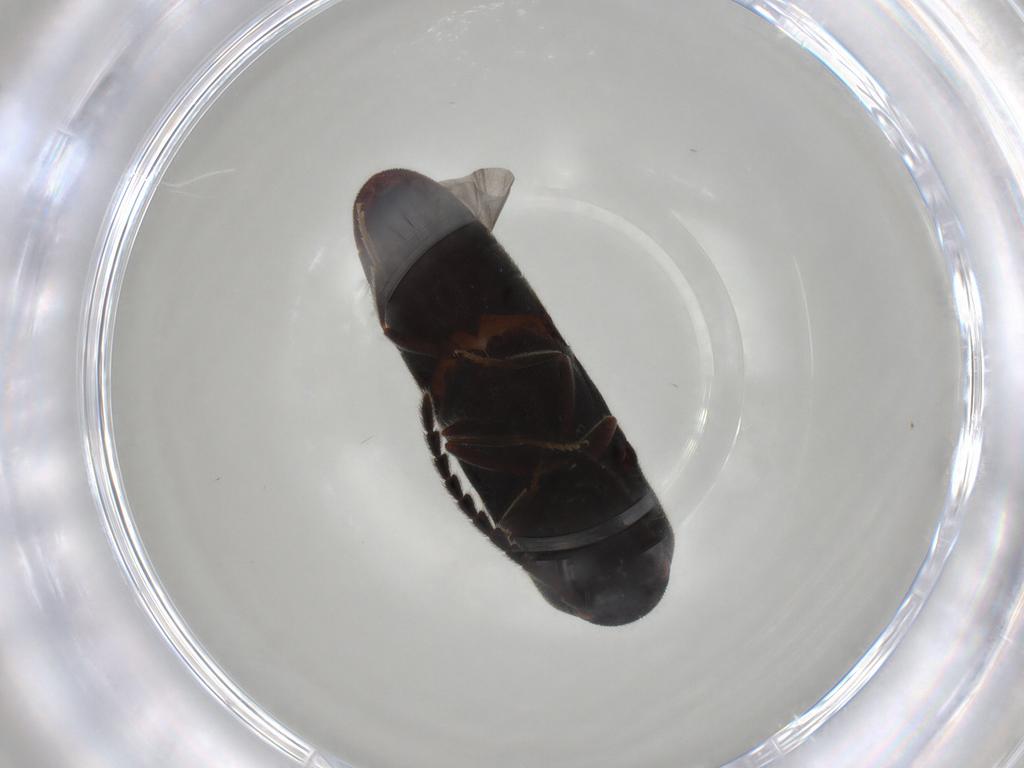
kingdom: Animalia
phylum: Arthropoda
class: Insecta
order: Coleoptera
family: Eucnemidae
